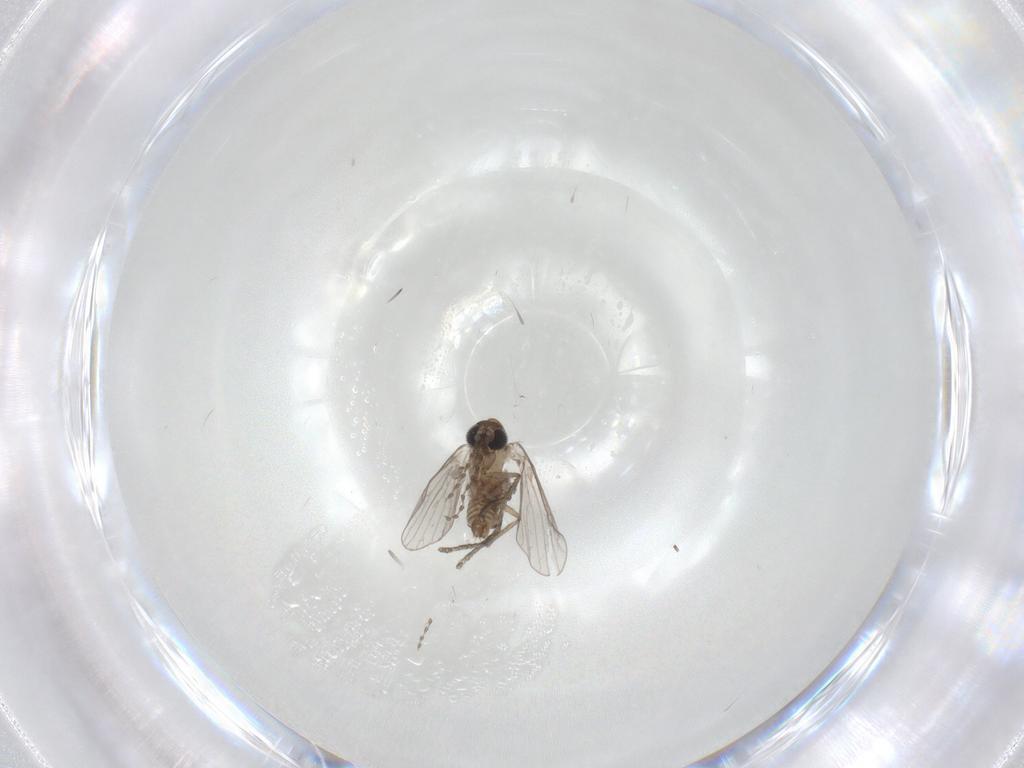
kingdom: Animalia
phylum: Arthropoda
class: Insecta
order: Diptera
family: Psychodidae
